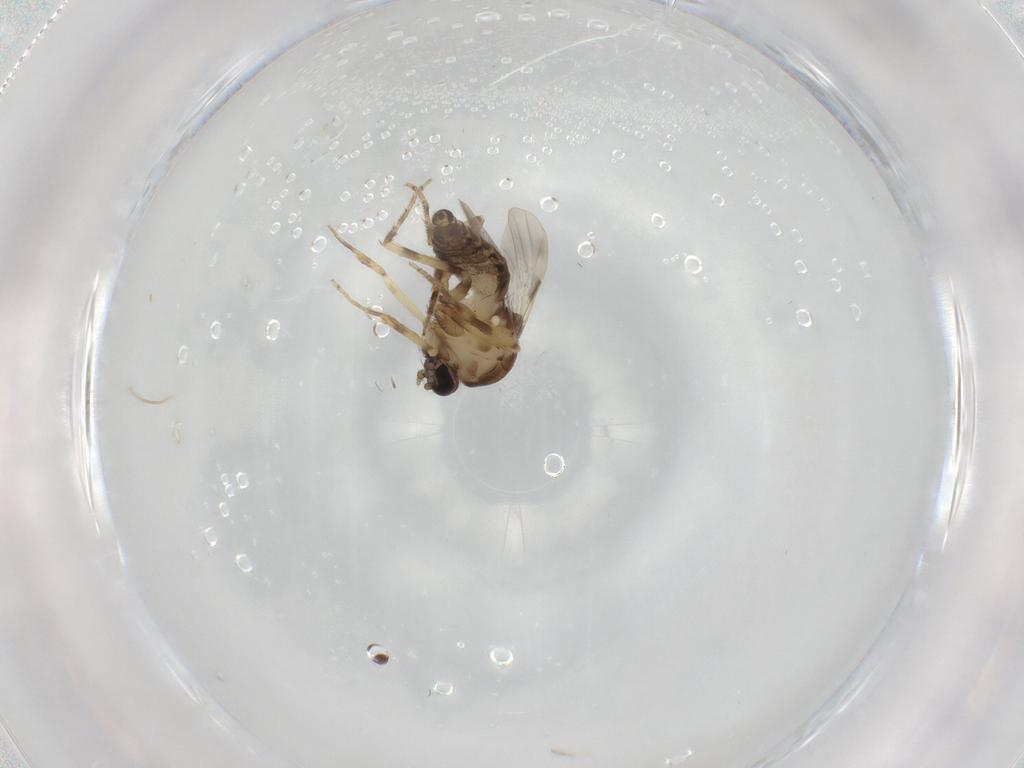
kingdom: Animalia
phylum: Arthropoda
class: Insecta
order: Diptera
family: Ceratopogonidae
